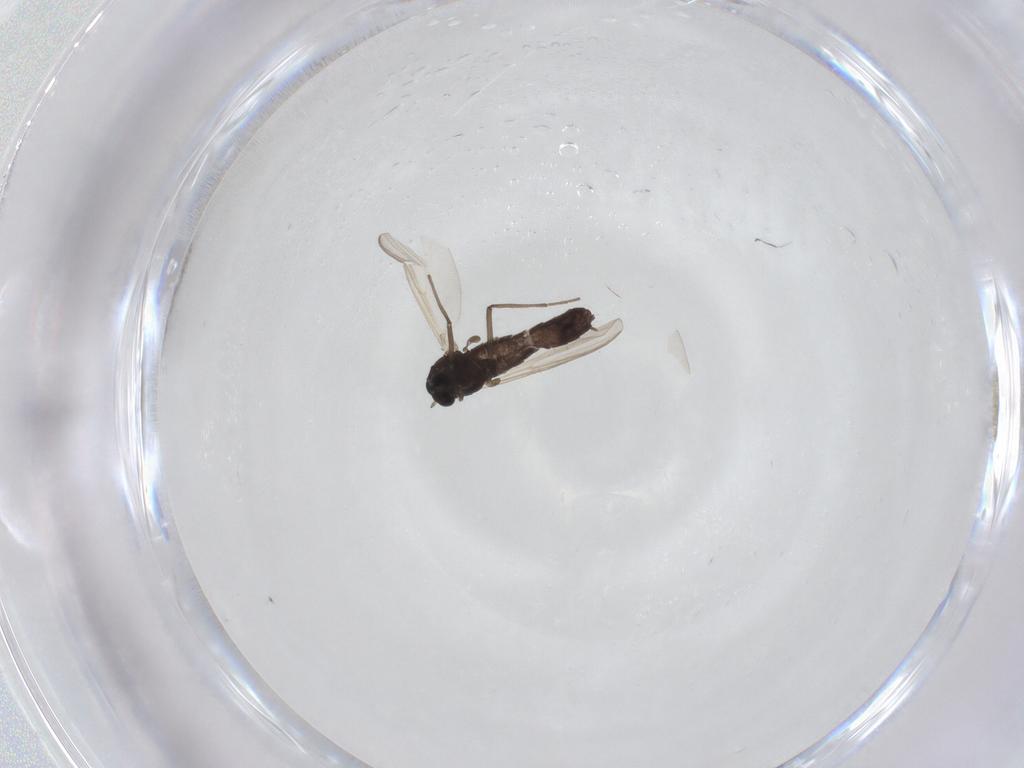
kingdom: Animalia
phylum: Arthropoda
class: Insecta
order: Diptera
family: Chironomidae
